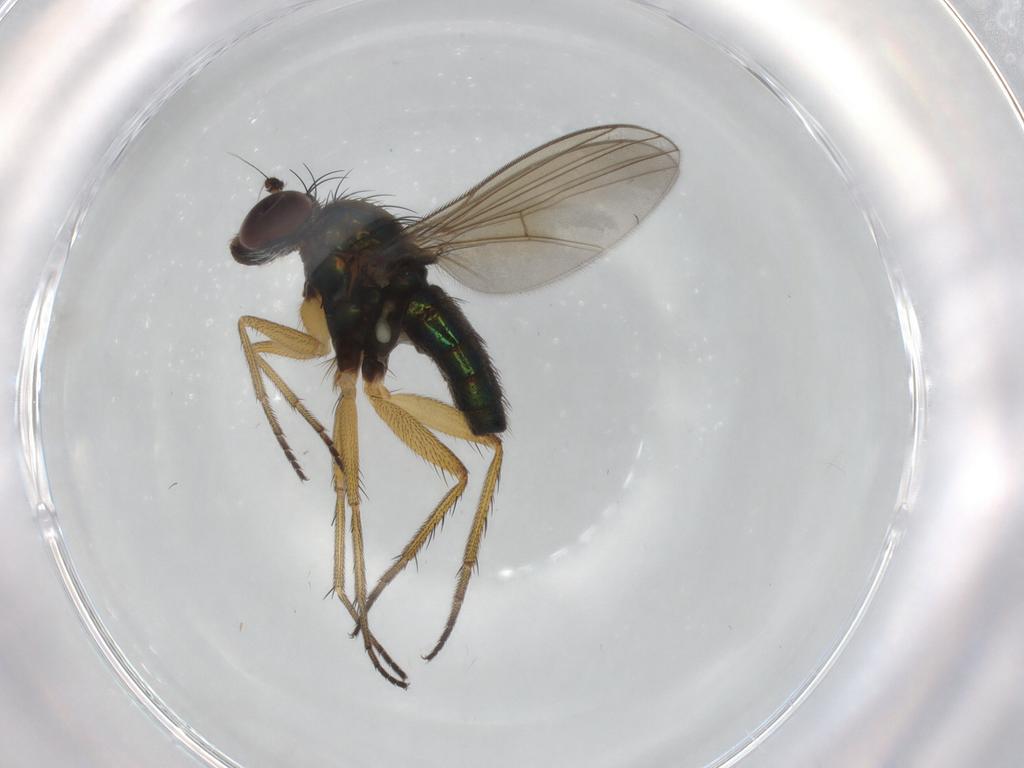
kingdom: Animalia
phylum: Arthropoda
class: Insecta
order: Diptera
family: Dolichopodidae
